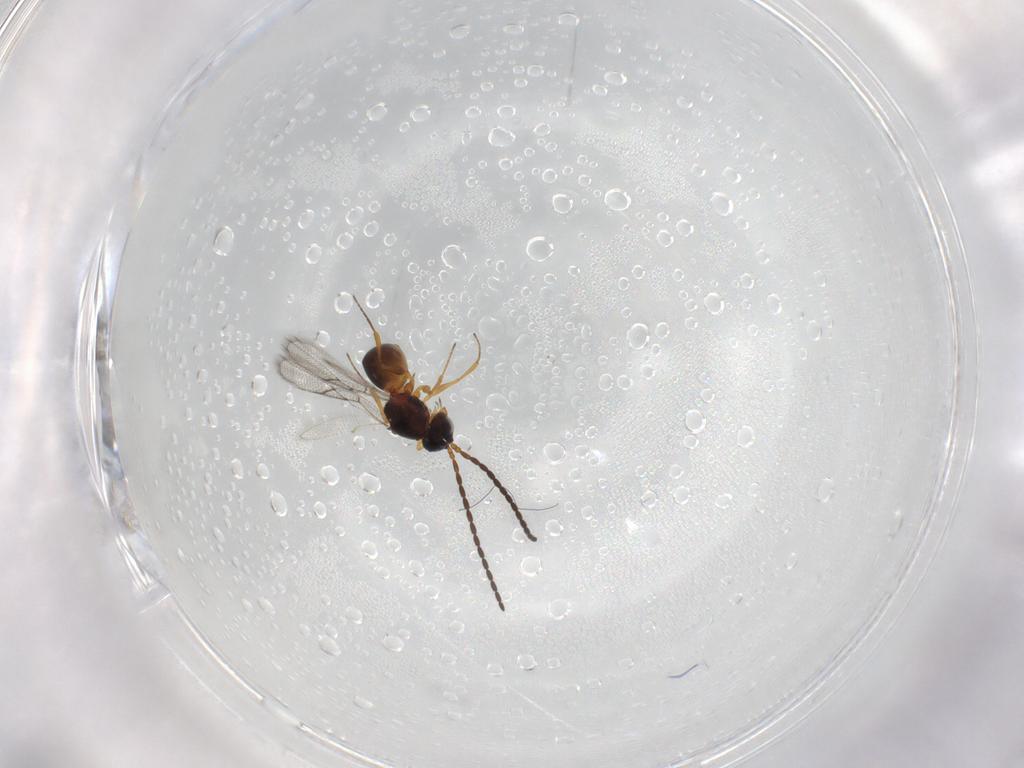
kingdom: Animalia
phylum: Arthropoda
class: Insecta
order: Hymenoptera
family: Figitidae
